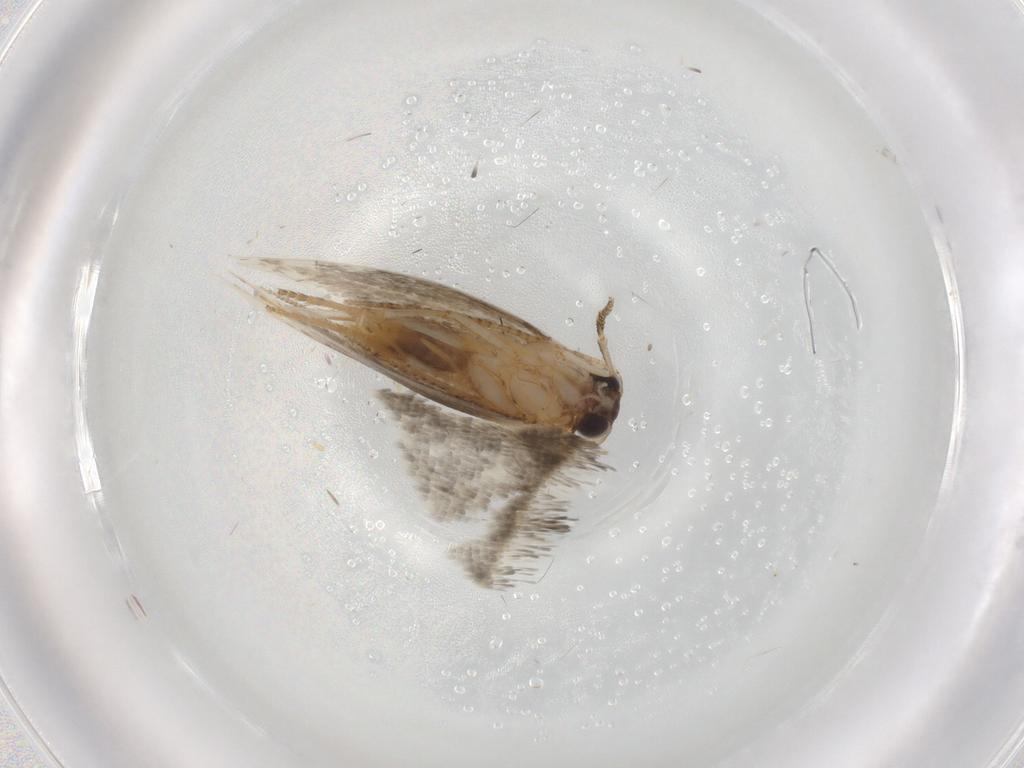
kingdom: Animalia
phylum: Arthropoda
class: Insecta
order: Lepidoptera
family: Tineidae
